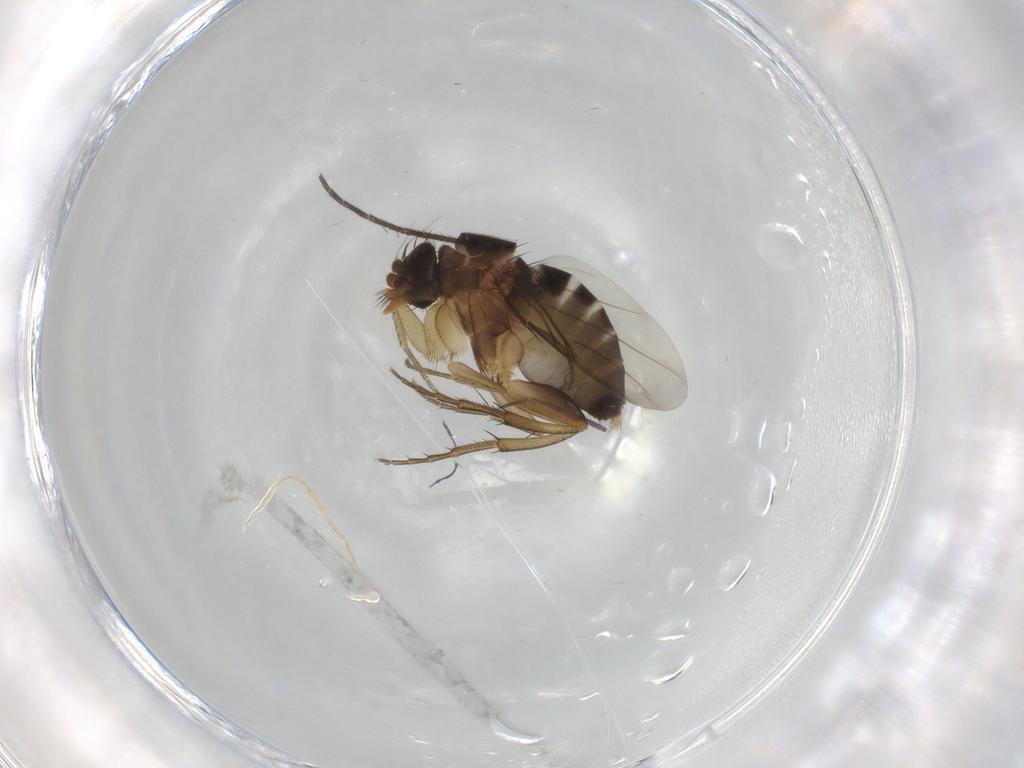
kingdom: Animalia
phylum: Arthropoda
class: Insecta
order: Diptera
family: Phoridae
